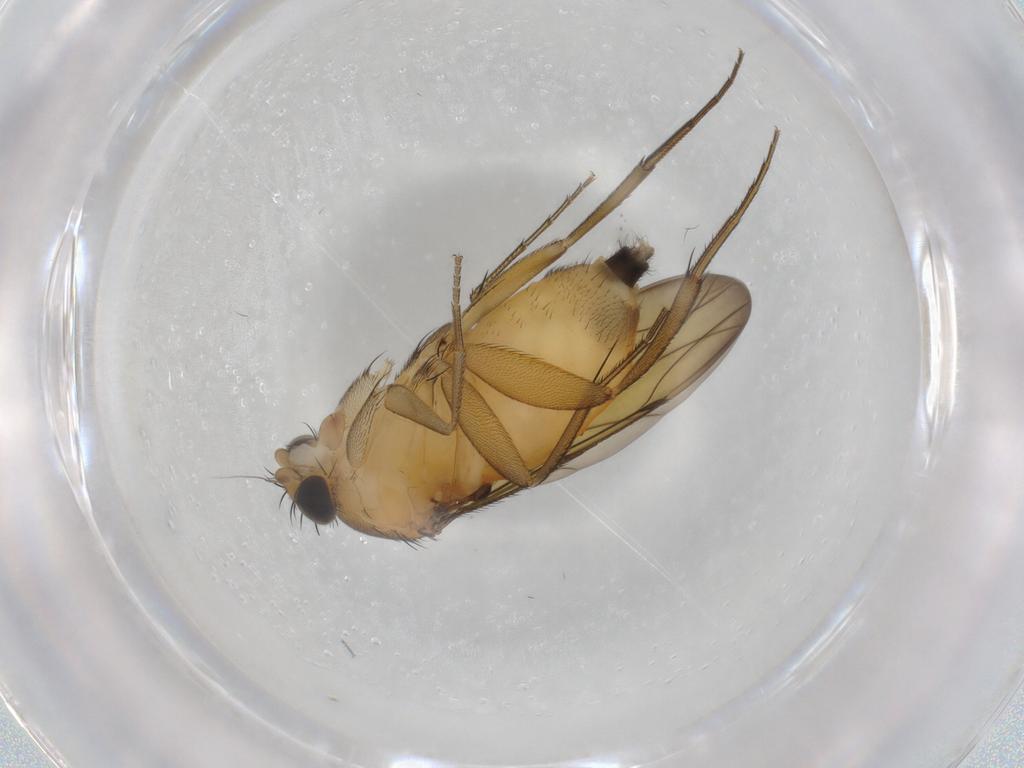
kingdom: Animalia
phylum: Arthropoda
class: Insecta
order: Diptera
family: Phoridae
